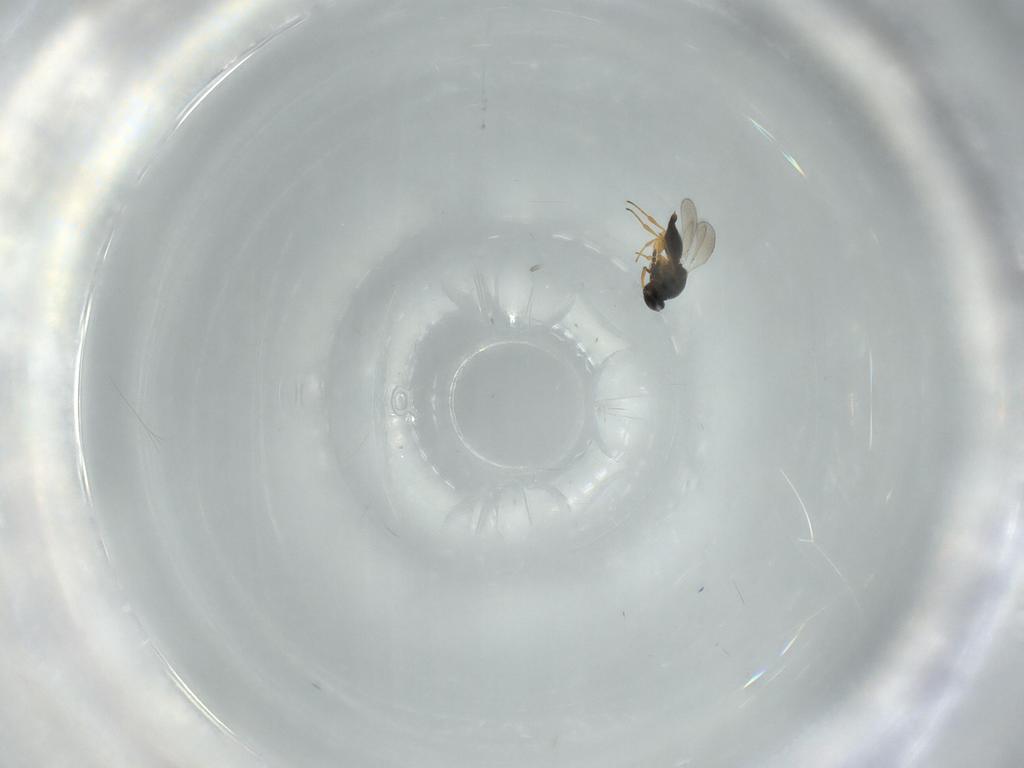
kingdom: Animalia
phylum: Arthropoda
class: Insecta
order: Hymenoptera
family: Platygastridae
